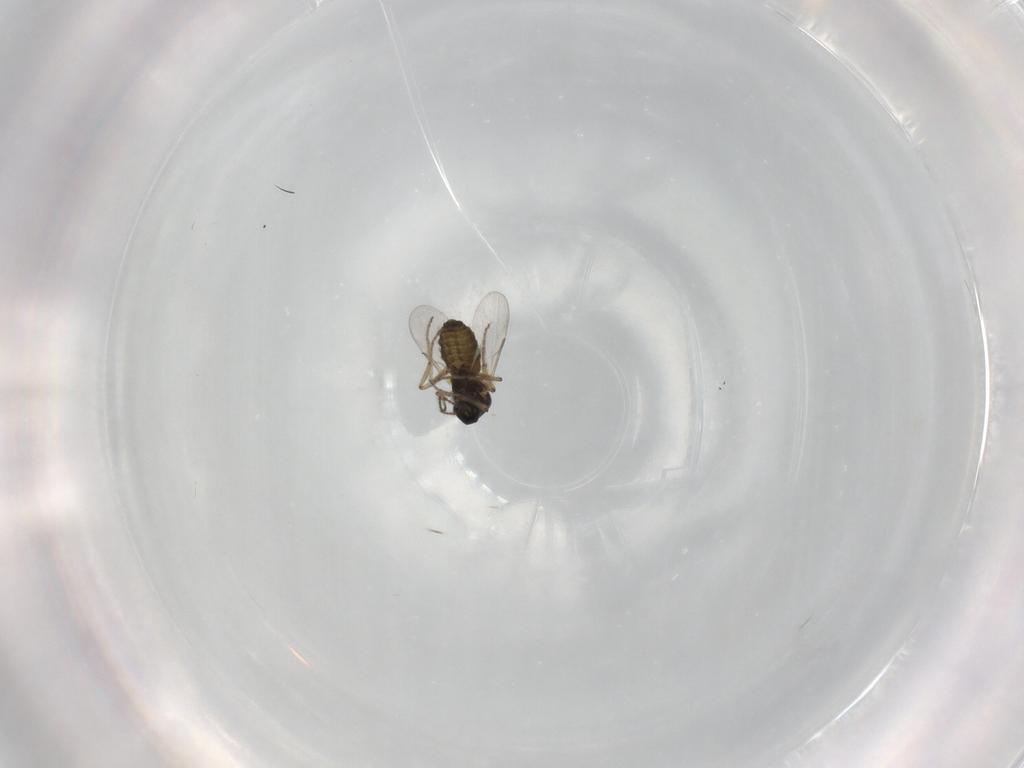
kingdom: Animalia
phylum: Arthropoda
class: Insecta
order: Diptera
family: Ceratopogonidae
